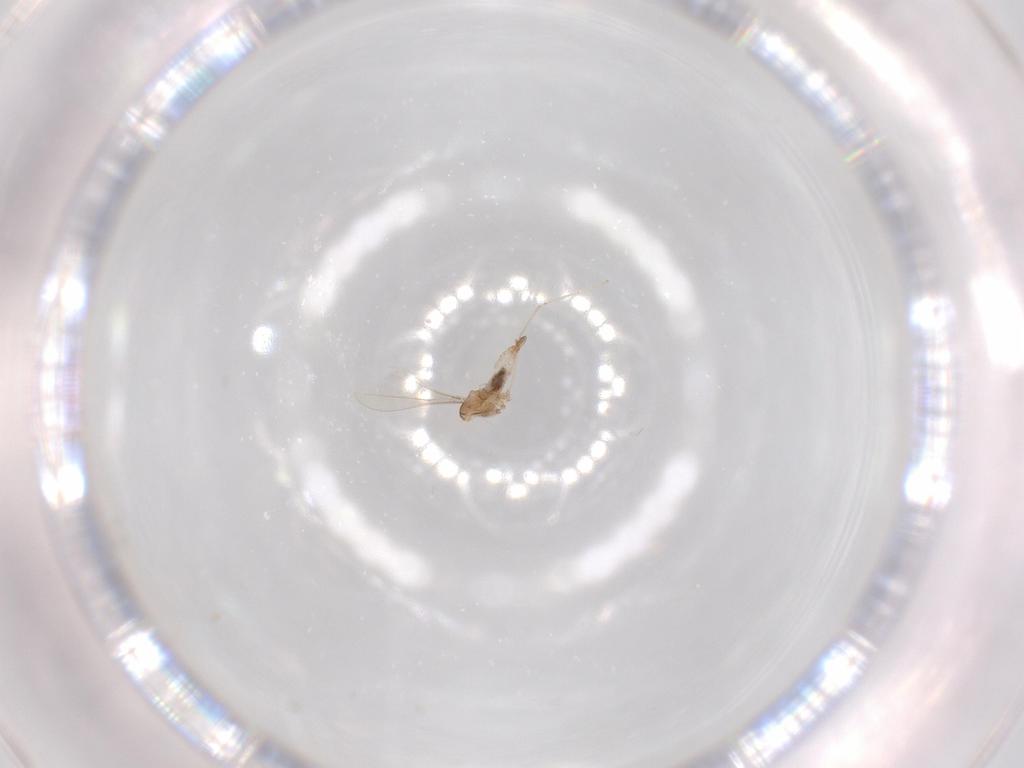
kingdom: Animalia
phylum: Arthropoda
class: Insecta
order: Diptera
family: Cecidomyiidae
